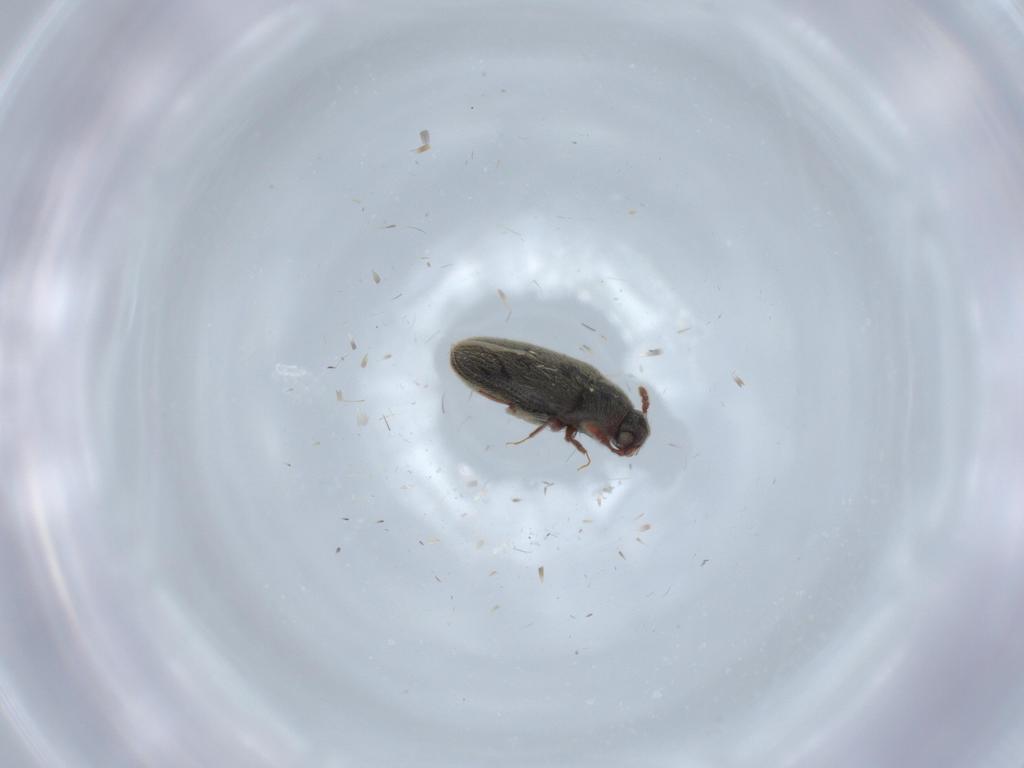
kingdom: Animalia
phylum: Arthropoda
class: Insecta
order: Coleoptera
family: Throscidae
